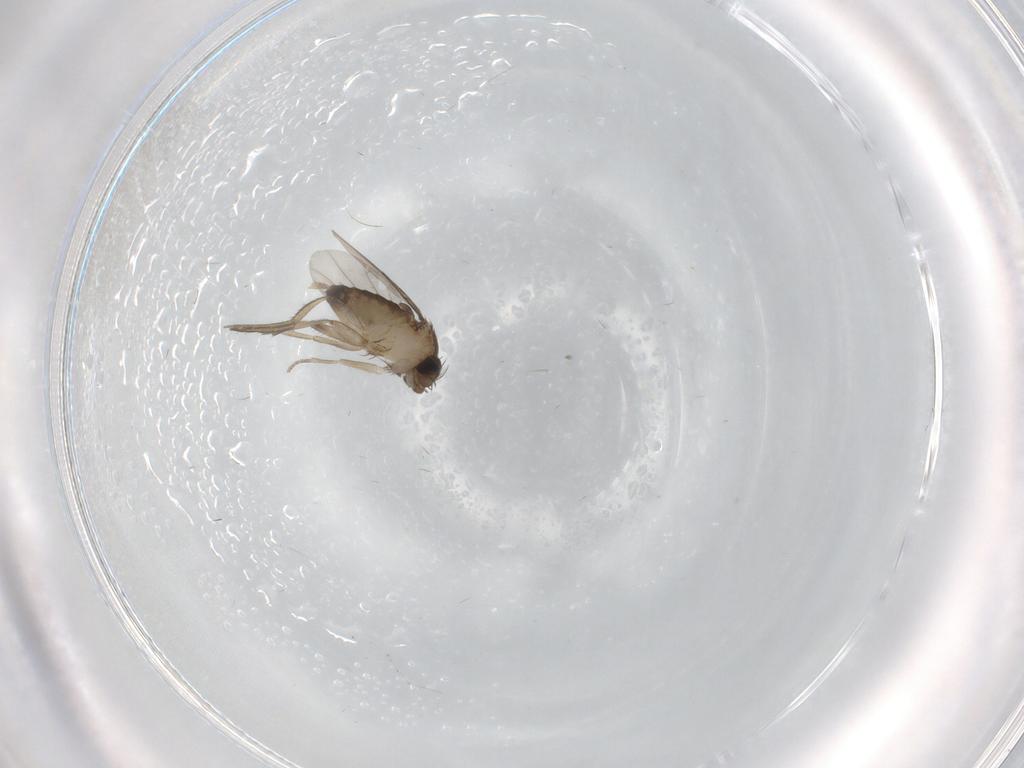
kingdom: Animalia
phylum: Arthropoda
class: Insecta
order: Diptera
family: Phoridae
